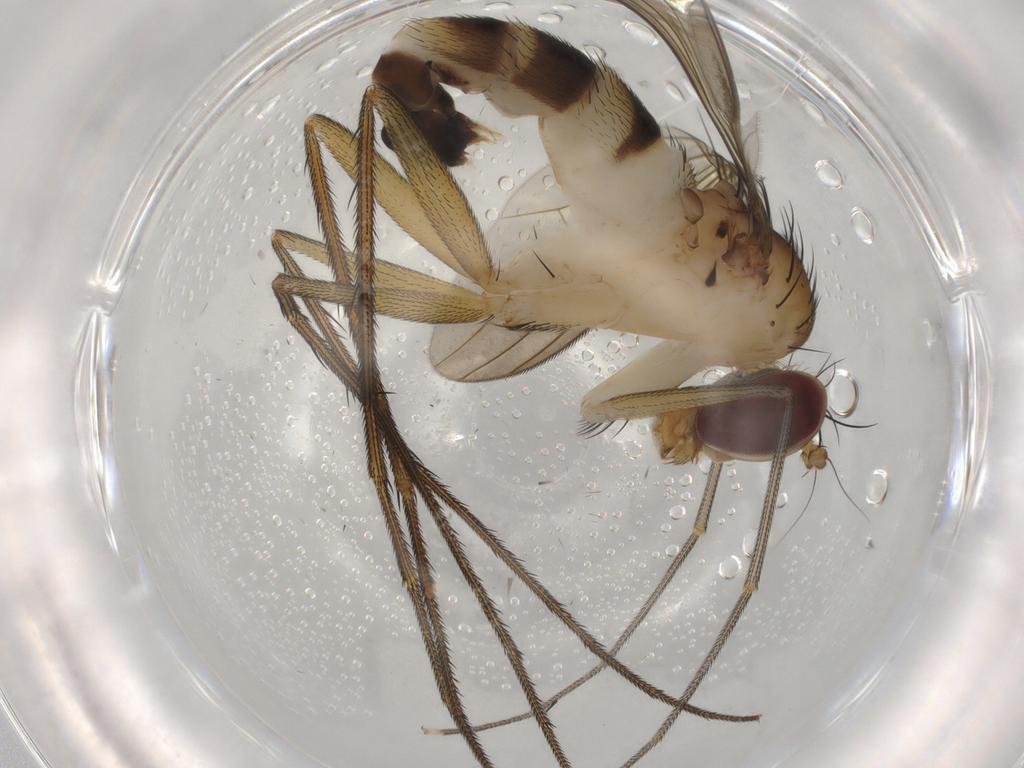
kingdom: Animalia
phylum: Arthropoda
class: Insecta
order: Diptera
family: Dolichopodidae
